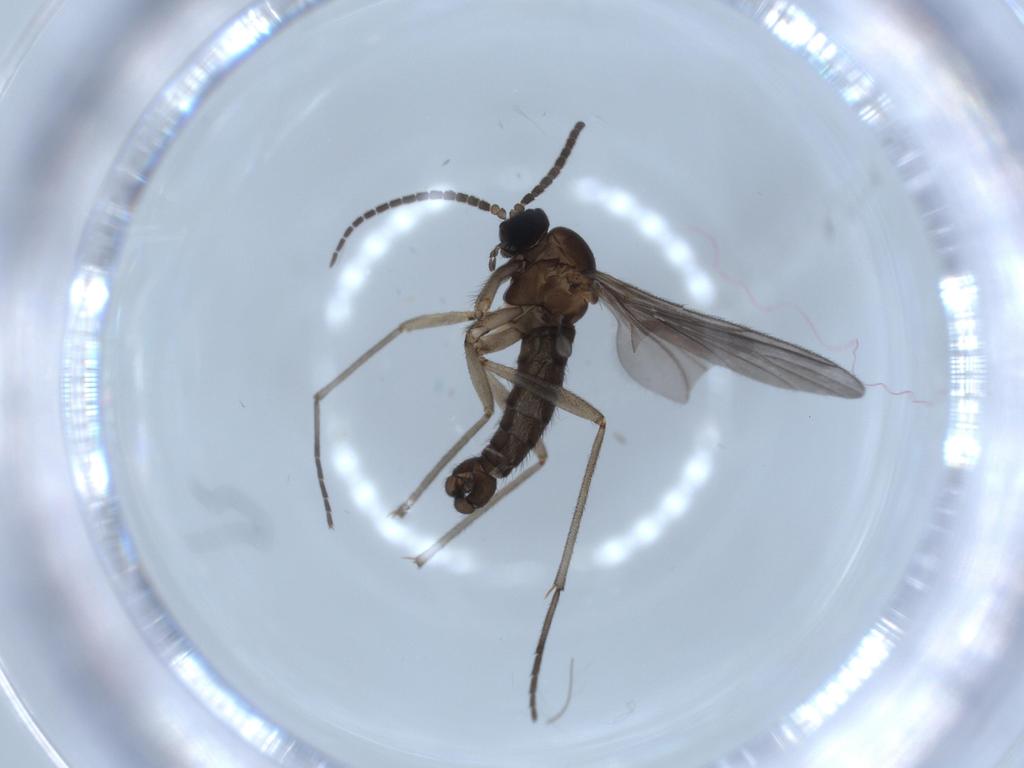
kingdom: Animalia
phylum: Arthropoda
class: Insecta
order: Diptera
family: Sciaridae
